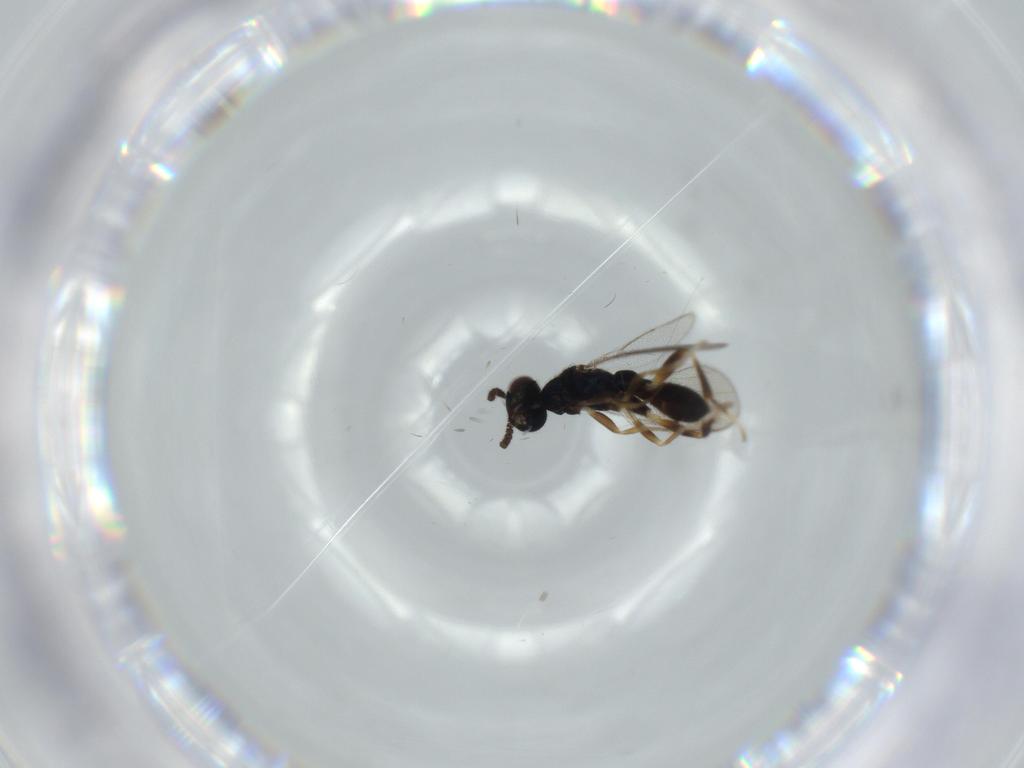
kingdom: Animalia
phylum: Arthropoda
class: Insecta
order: Hymenoptera
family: Cleonyminae
